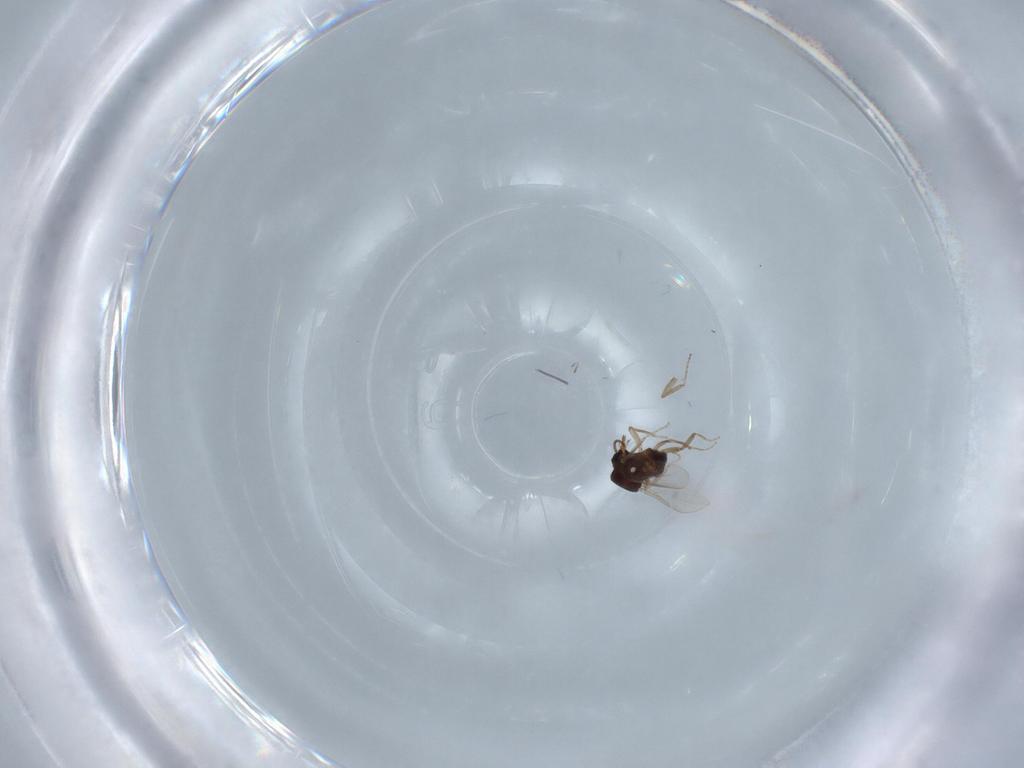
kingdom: Animalia
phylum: Arthropoda
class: Insecta
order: Diptera
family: Ceratopogonidae
